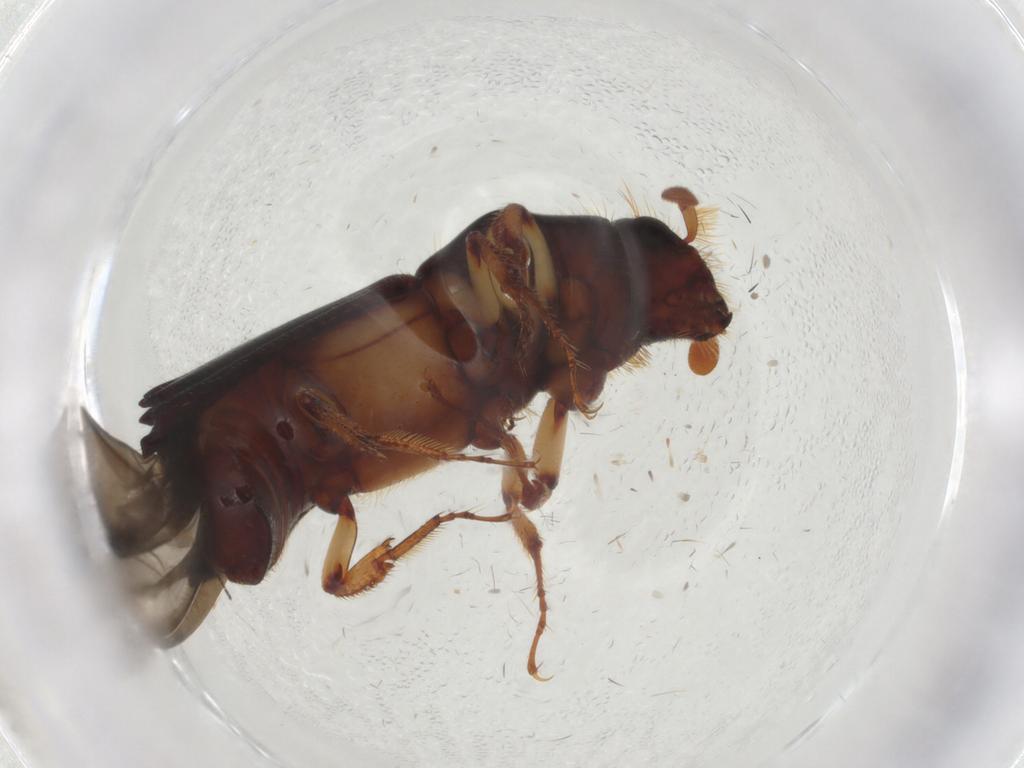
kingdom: Animalia
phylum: Arthropoda
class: Insecta
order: Coleoptera
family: Curculionidae
